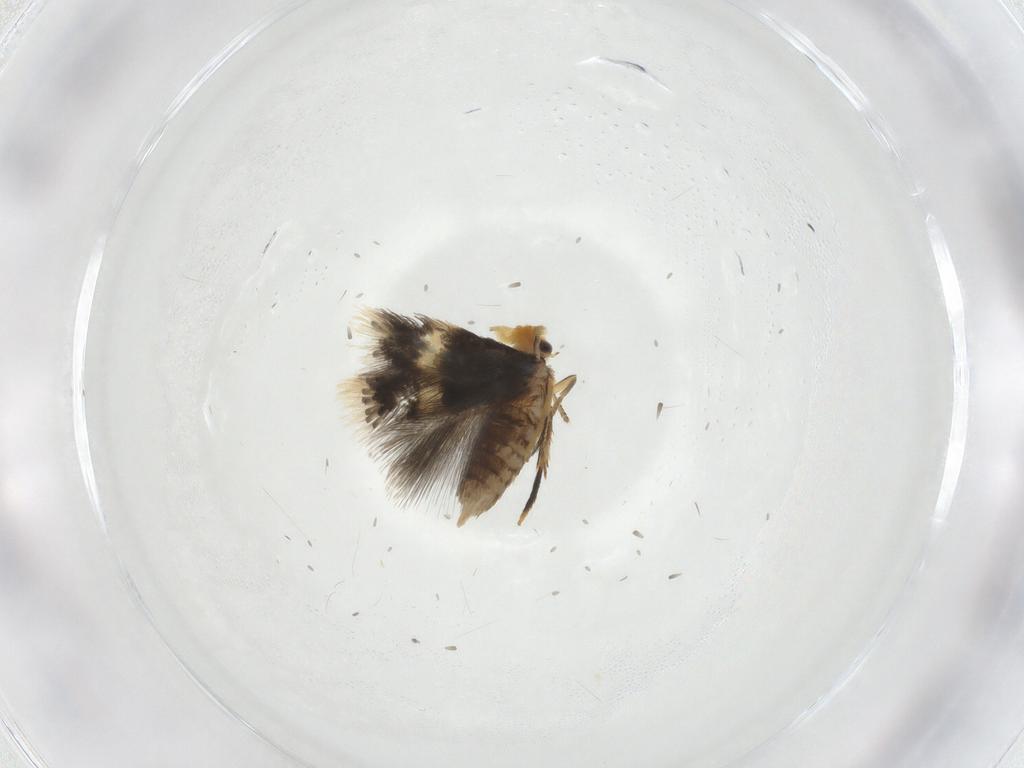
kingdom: Animalia
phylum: Arthropoda
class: Insecta
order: Lepidoptera
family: Nepticulidae
